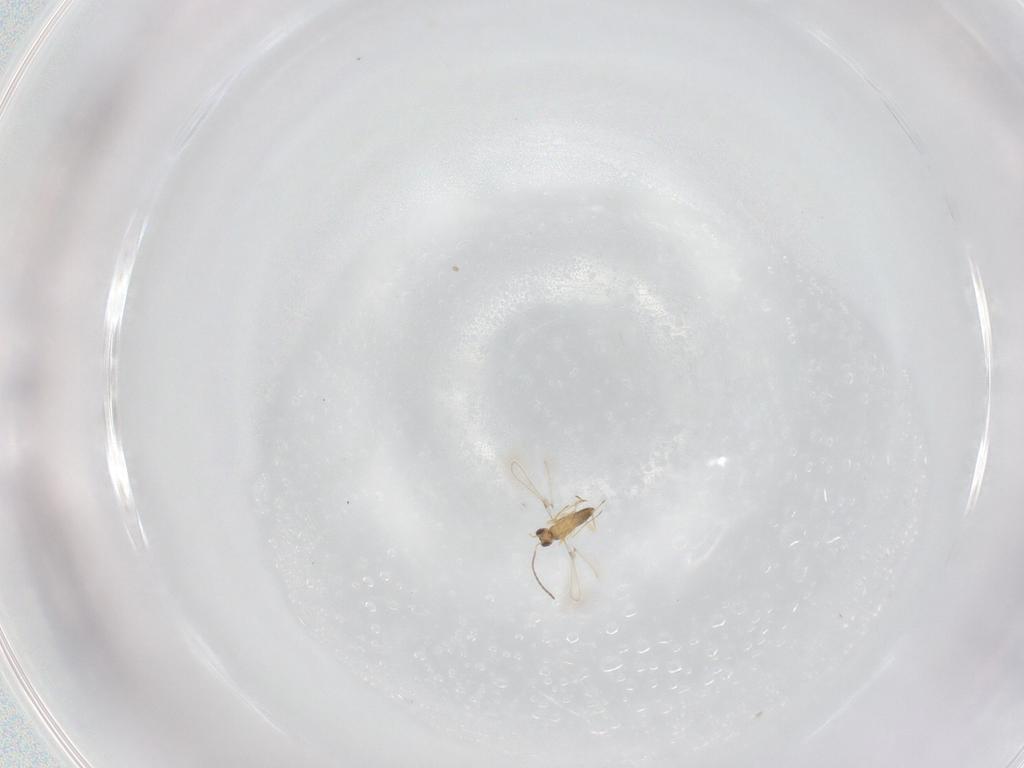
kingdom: Animalia
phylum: Arthropoda
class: Insecta
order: Hymenoptera
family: Mymaridae
